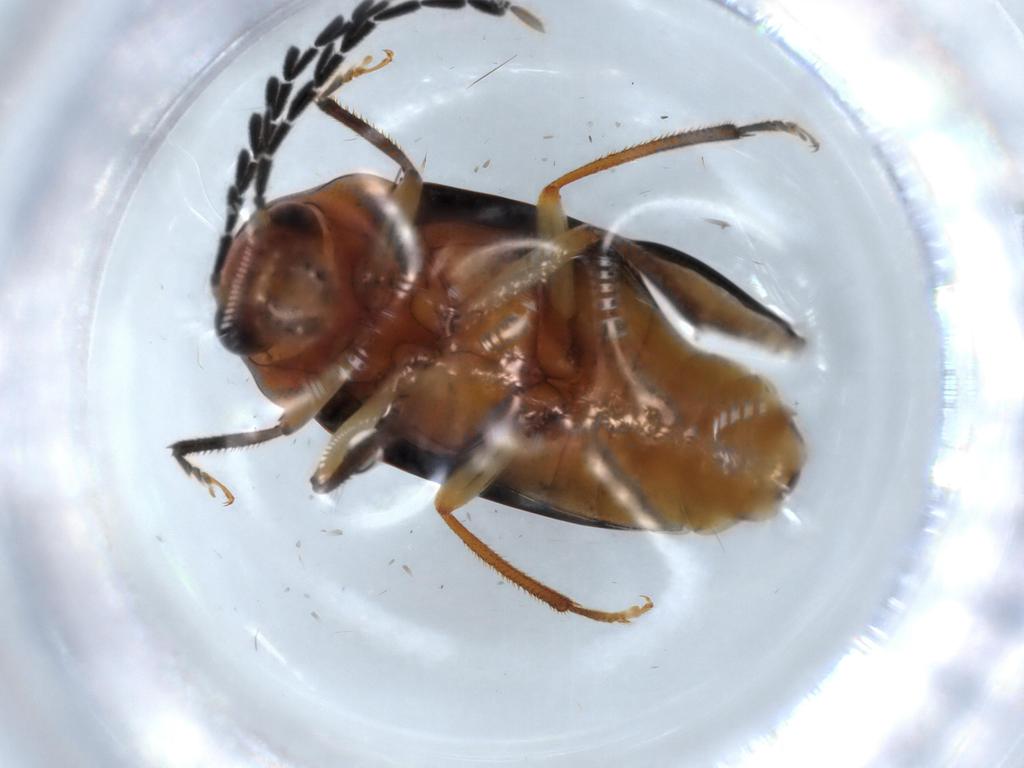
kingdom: Animalia
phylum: Arthropoda
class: Insecta
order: Coleoptera
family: Ptilodactylidae
